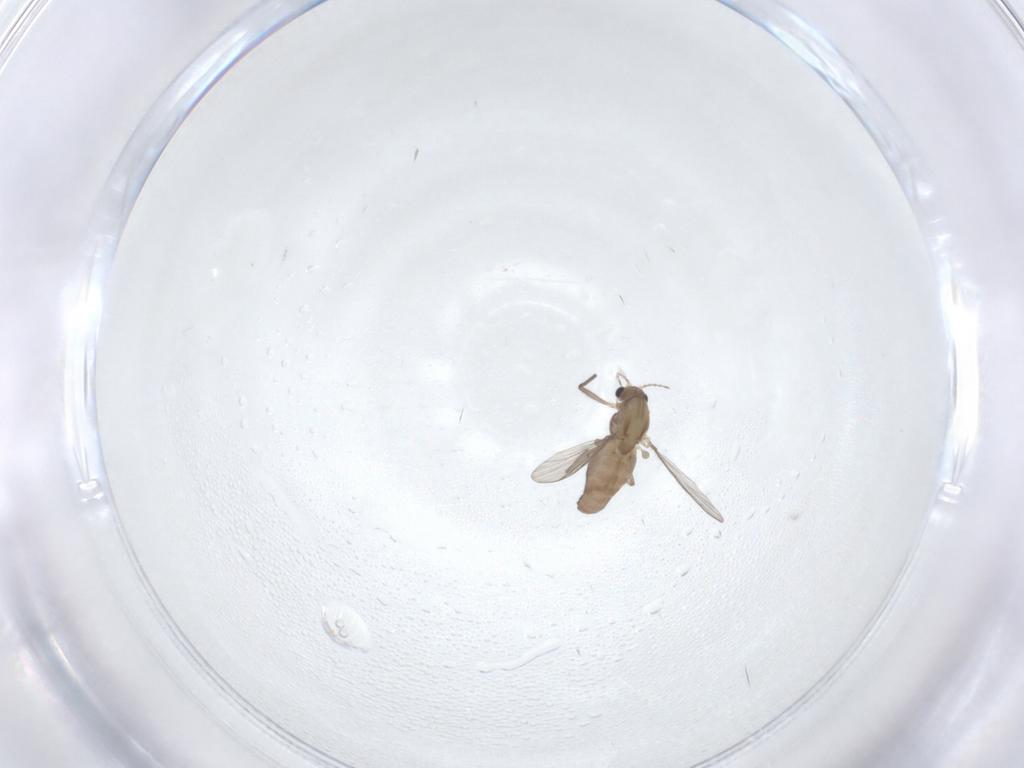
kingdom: Animalia
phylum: Arthropoda
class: Insecta
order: Diptera
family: Chironomidae
